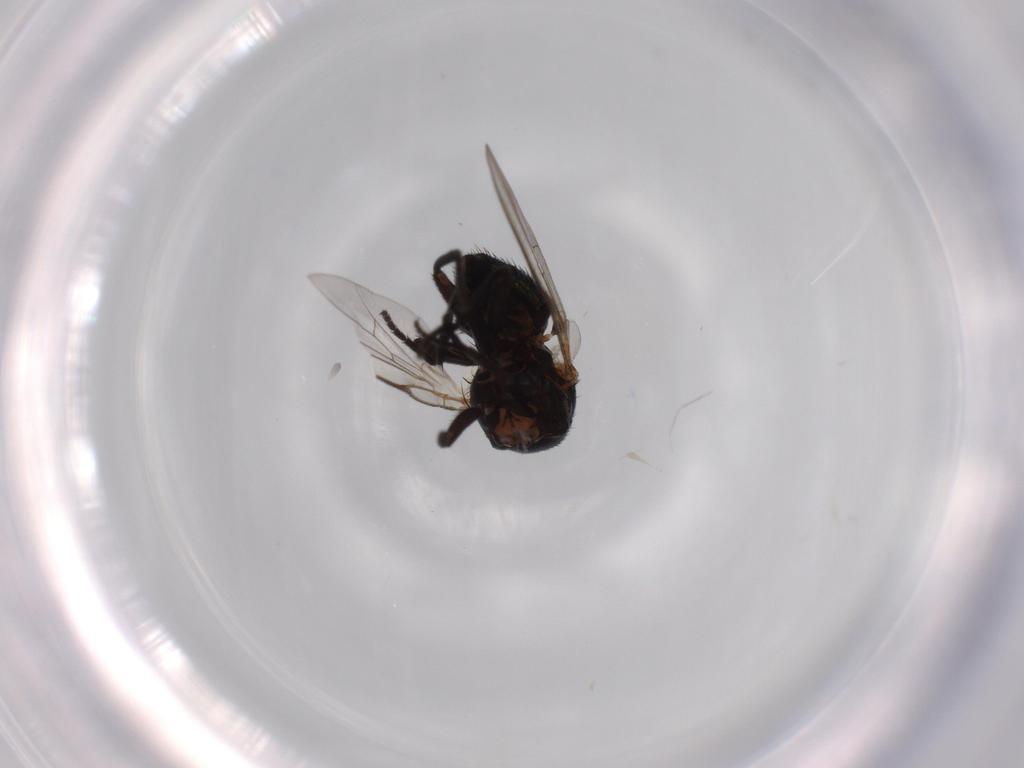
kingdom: Animalia
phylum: Arthropoda
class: Insecta
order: Diptera
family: Agromyzidae
